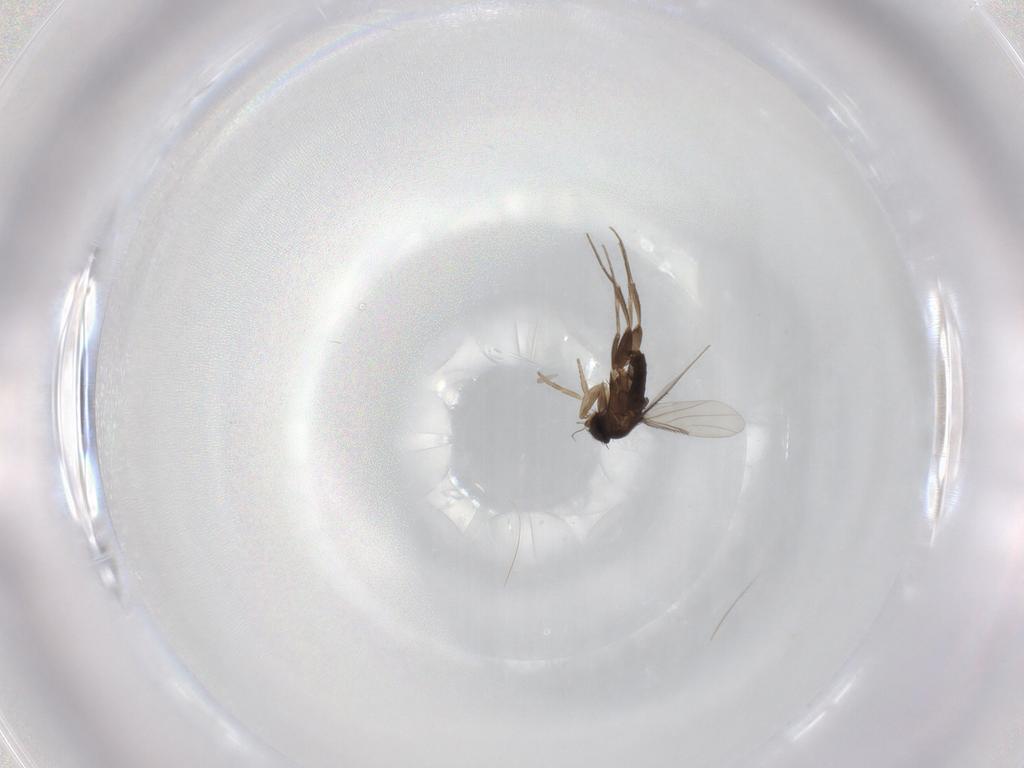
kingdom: Animalia
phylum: Arthropoda
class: Insecta
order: Diptera
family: Phoridae
